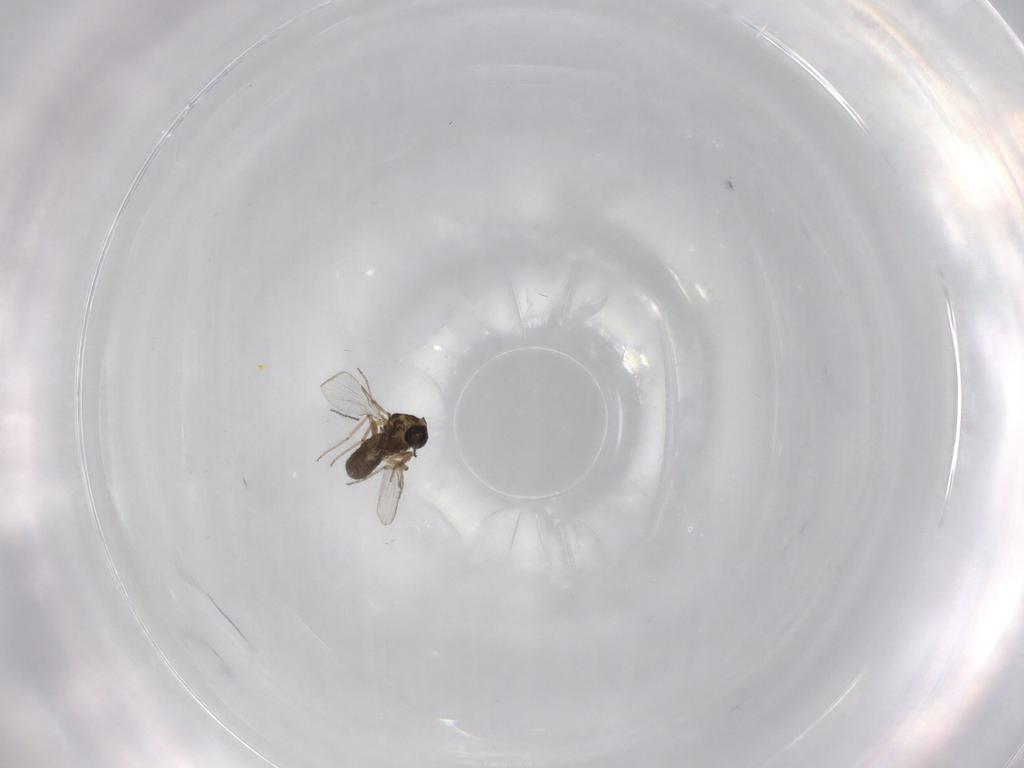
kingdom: Animalia
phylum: Arthropoda
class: Insecta
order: Diptera
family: Ceratopogonidae
